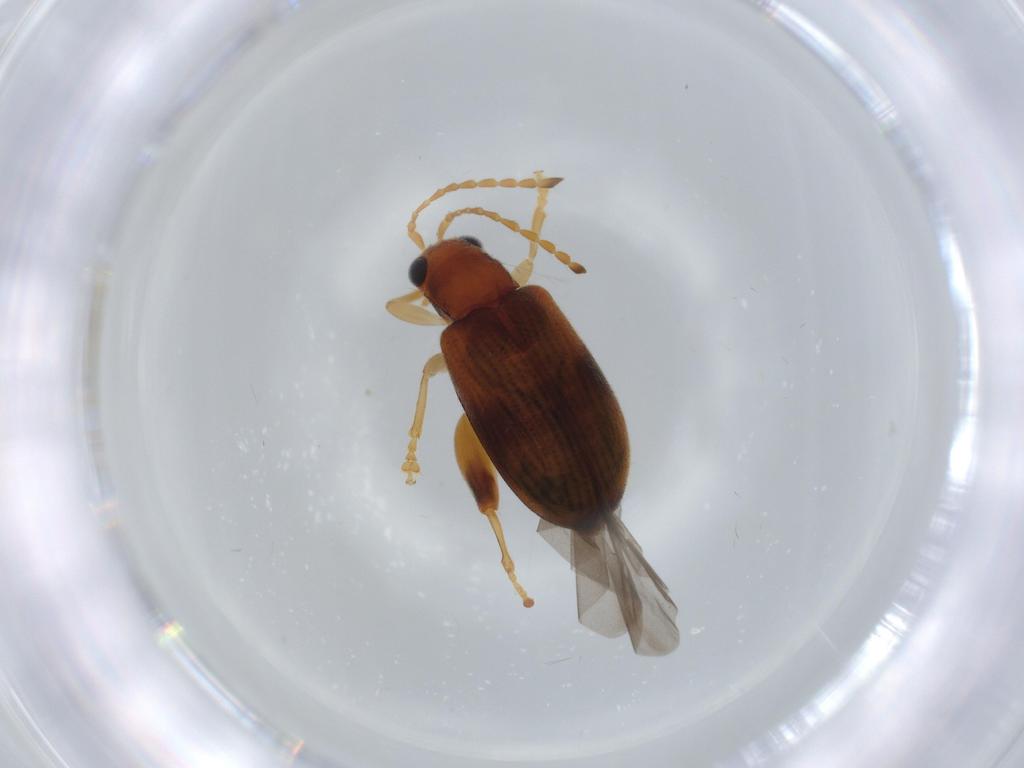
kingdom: Animalia
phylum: Arthropoda
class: Insecta
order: Coleoptera
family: Chrysomelidae
